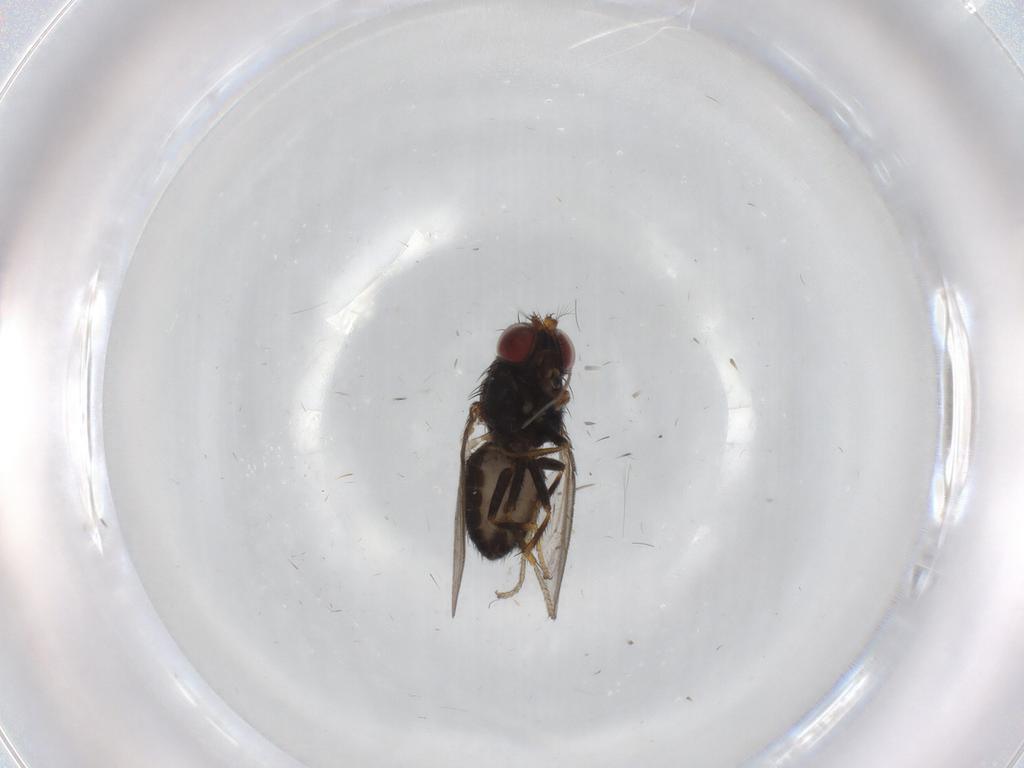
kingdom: Animalia
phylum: Arthropoda
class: Insecta
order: Diptera
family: Ephydridae
